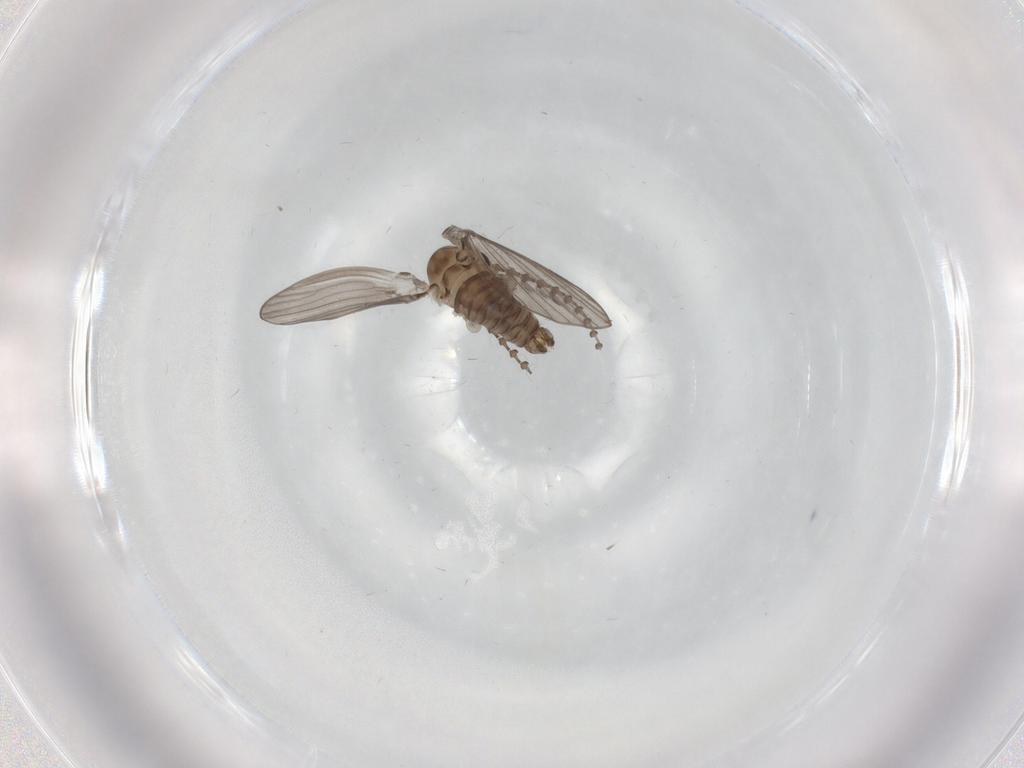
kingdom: Animalia
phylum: Arthropoda
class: Insecta
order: Diptera
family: Psychodidae
